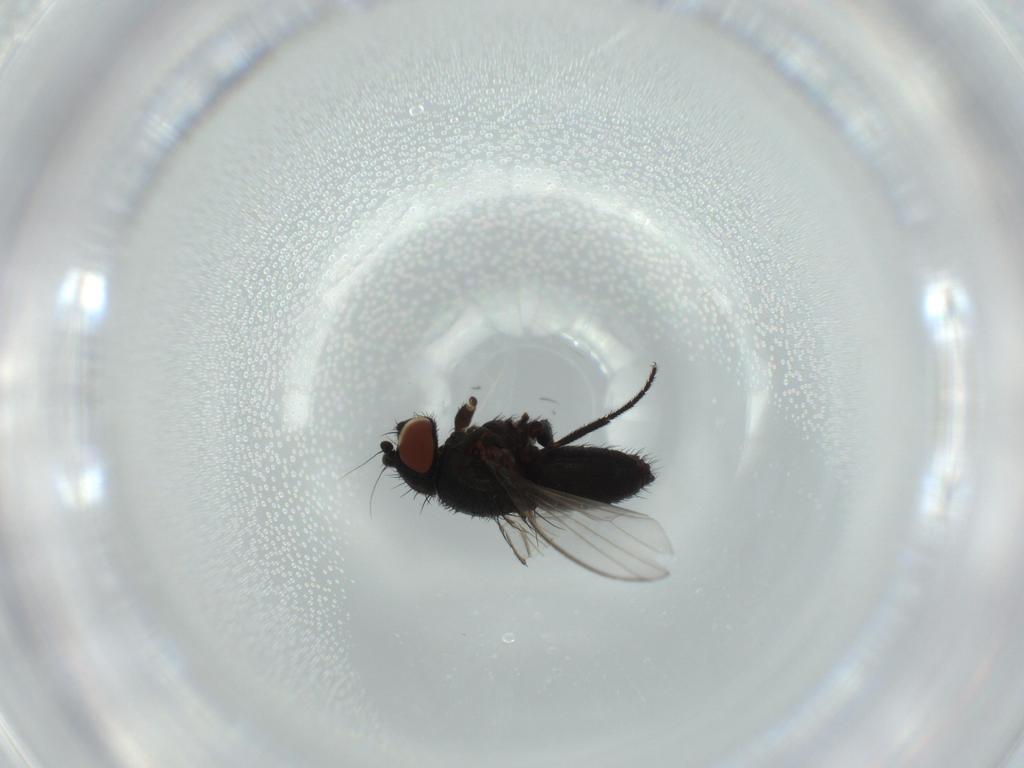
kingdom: Animalia
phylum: Arthropoda
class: Insecta
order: Diptera
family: Milichiidae
